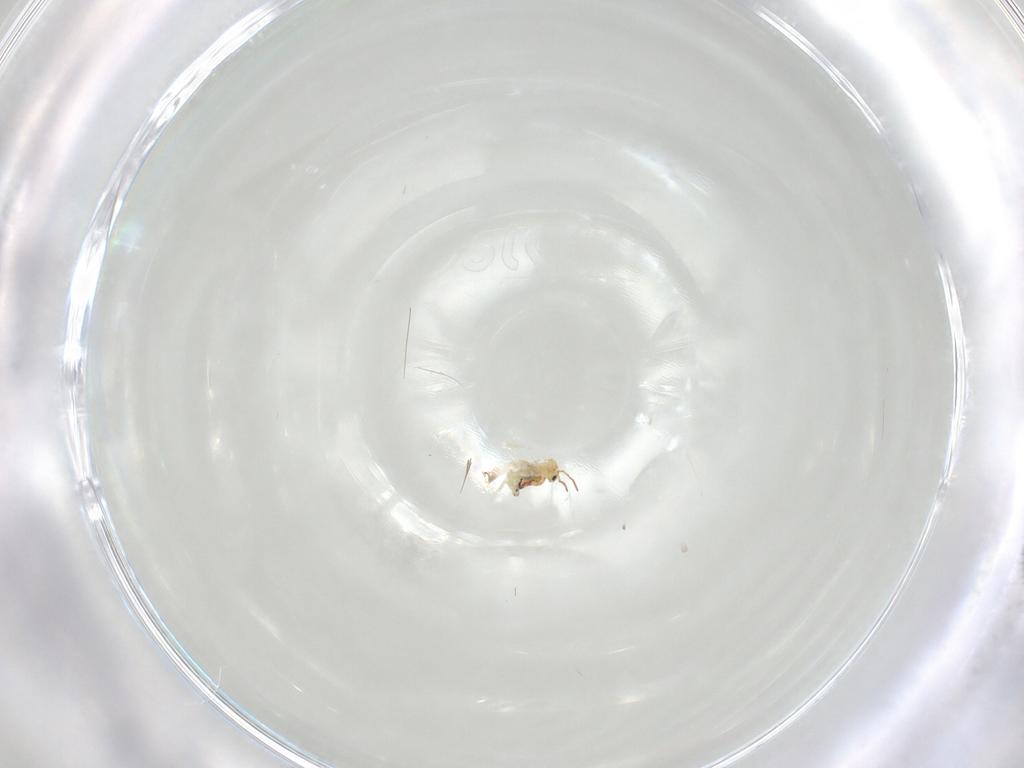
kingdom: Animalia
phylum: Arthropoda
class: Collembola
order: Symphypleona
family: Bourletiellidae
